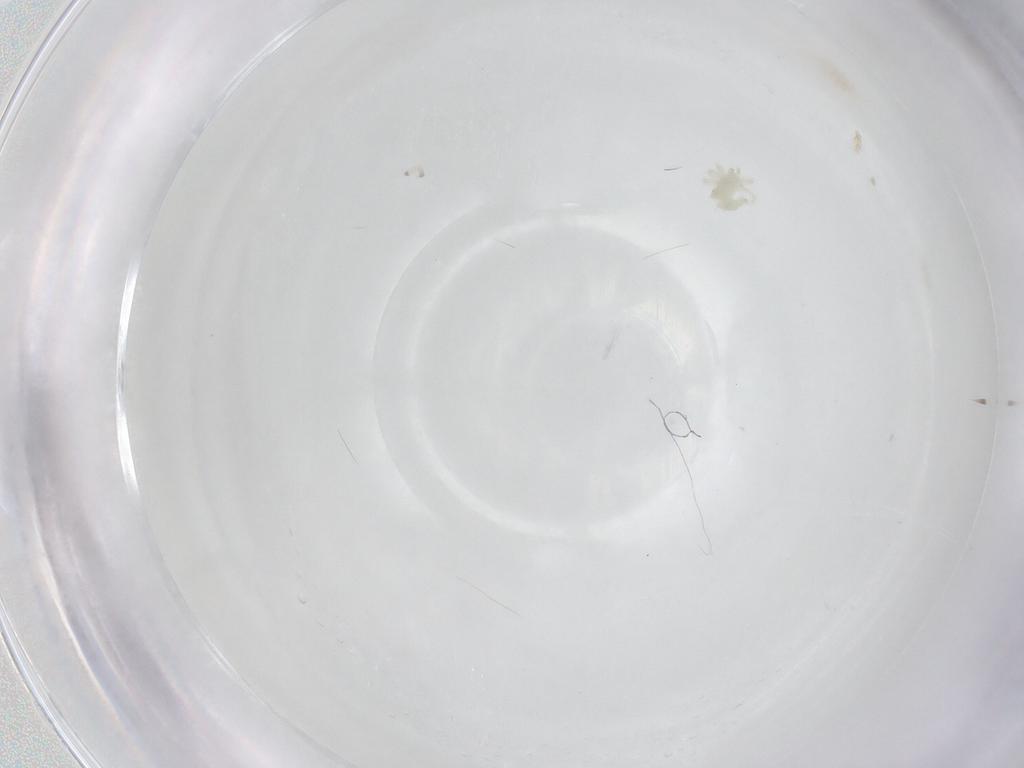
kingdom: Animalia
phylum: Arthropoda
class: Arachnida
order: Trombidiformes
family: Anystidae
